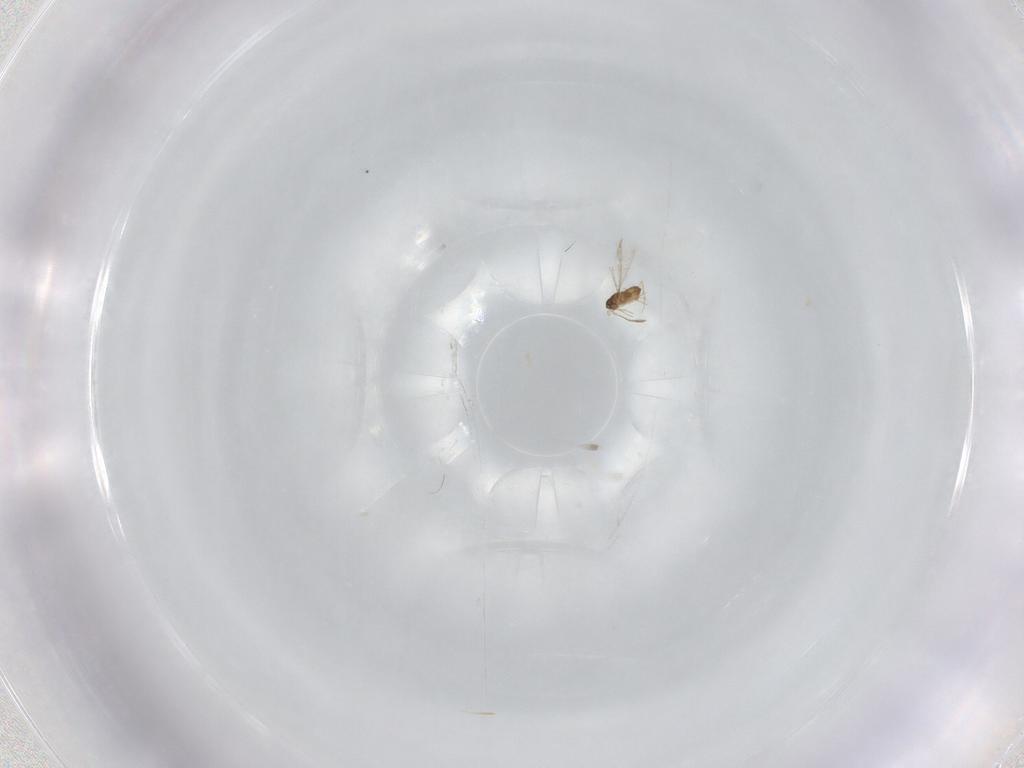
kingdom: Animalia
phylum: Arthropoda
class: Insecta
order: Hymenoptera
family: Mymaridae
